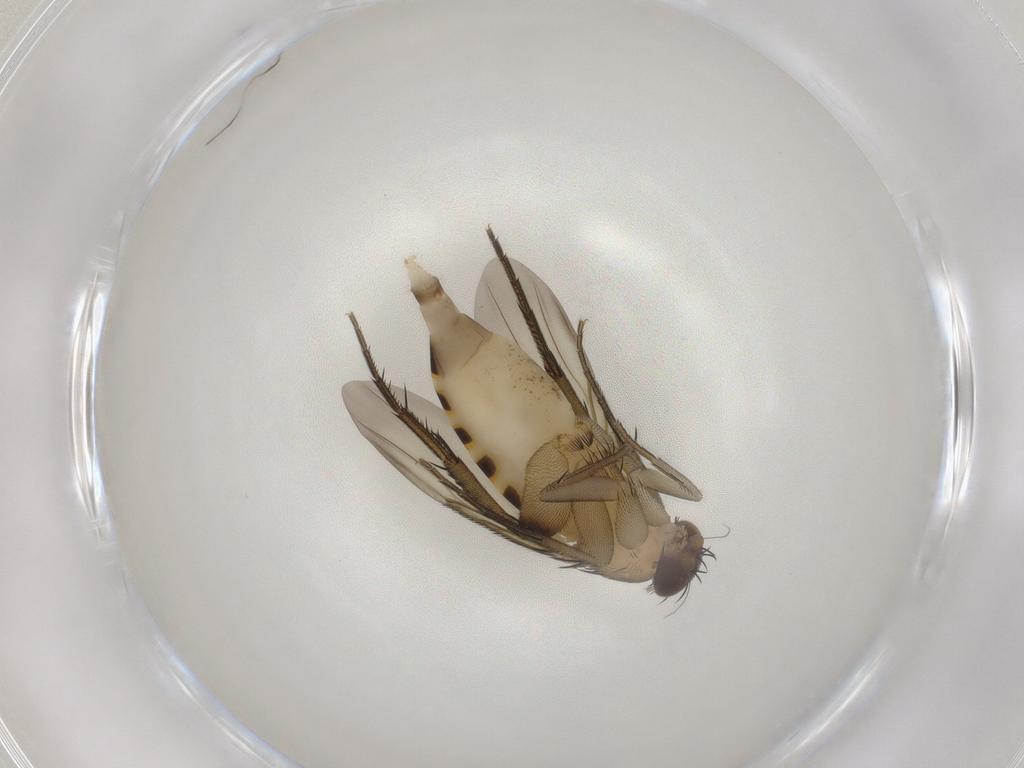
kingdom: Animalia
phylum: Arthropoda
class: Insecta
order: Diptera
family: Phoridae
